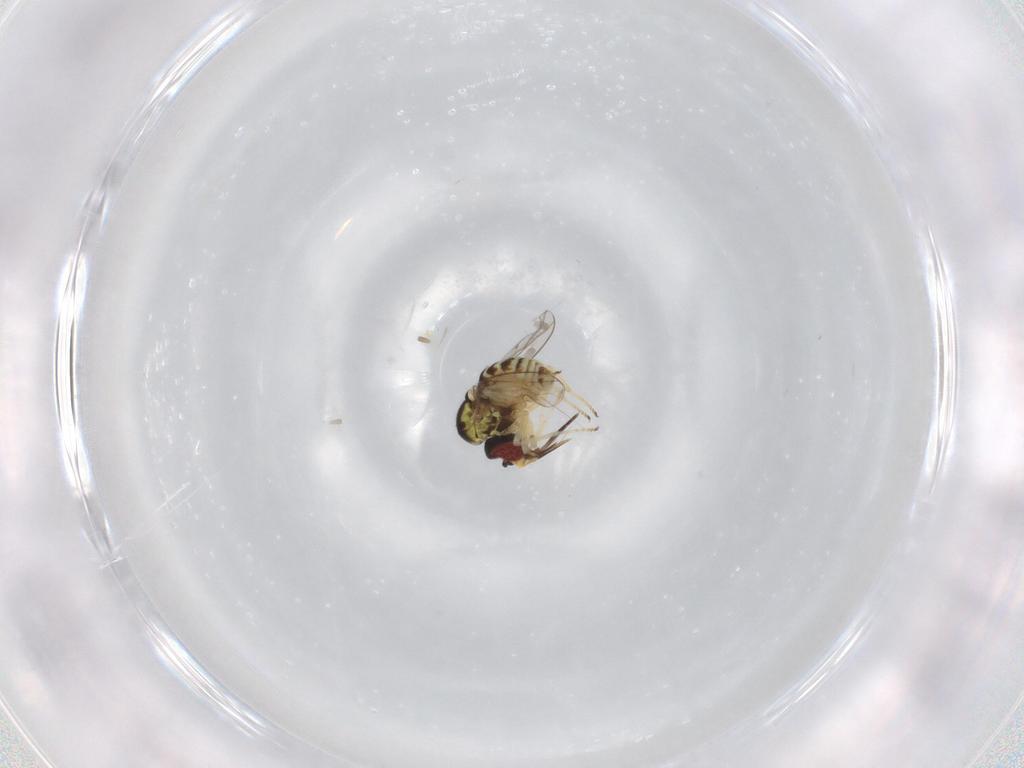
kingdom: Animalia
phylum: Arthropoda
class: Insecta
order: Diptera
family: Bombyliidae
